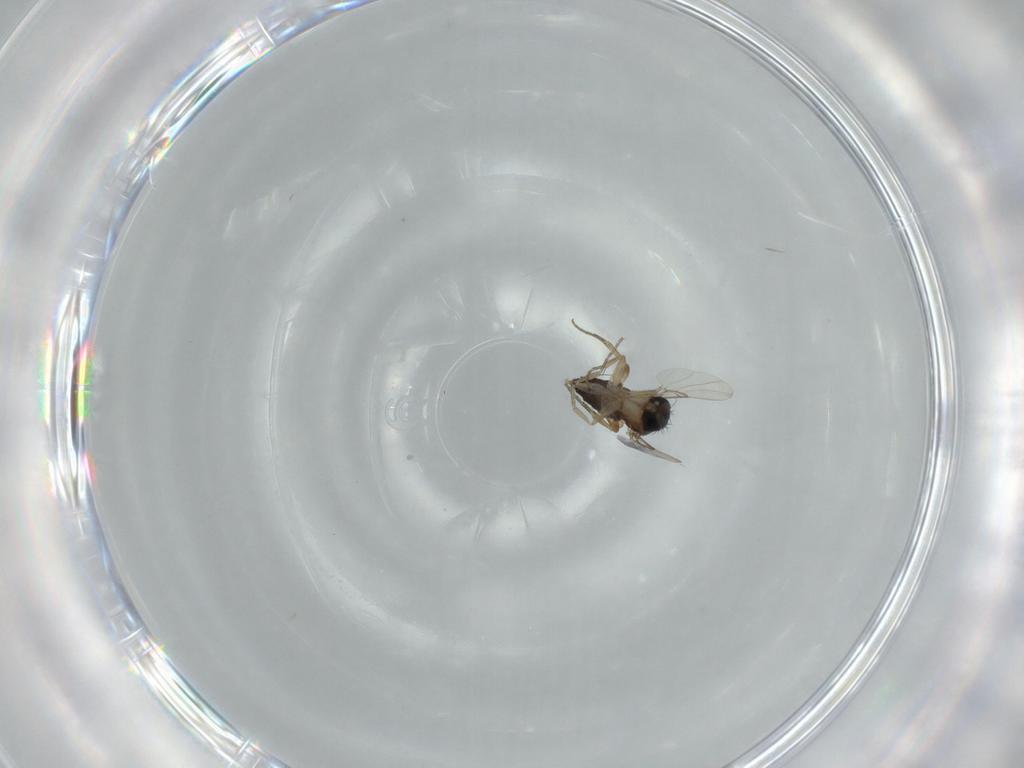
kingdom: Animalia
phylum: Arthropoda
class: Insecta
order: Diptera
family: Phoridae
